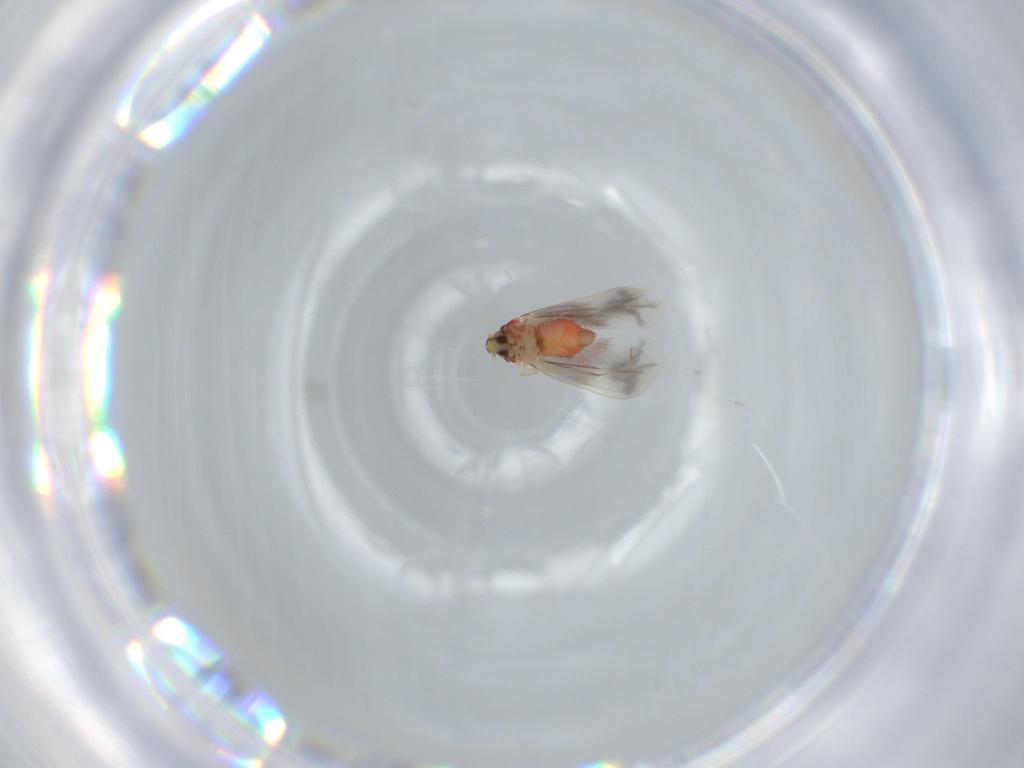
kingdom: Animalia
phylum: Arthropoda
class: Insecta
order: Hemiptera
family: Aleyrodidae
